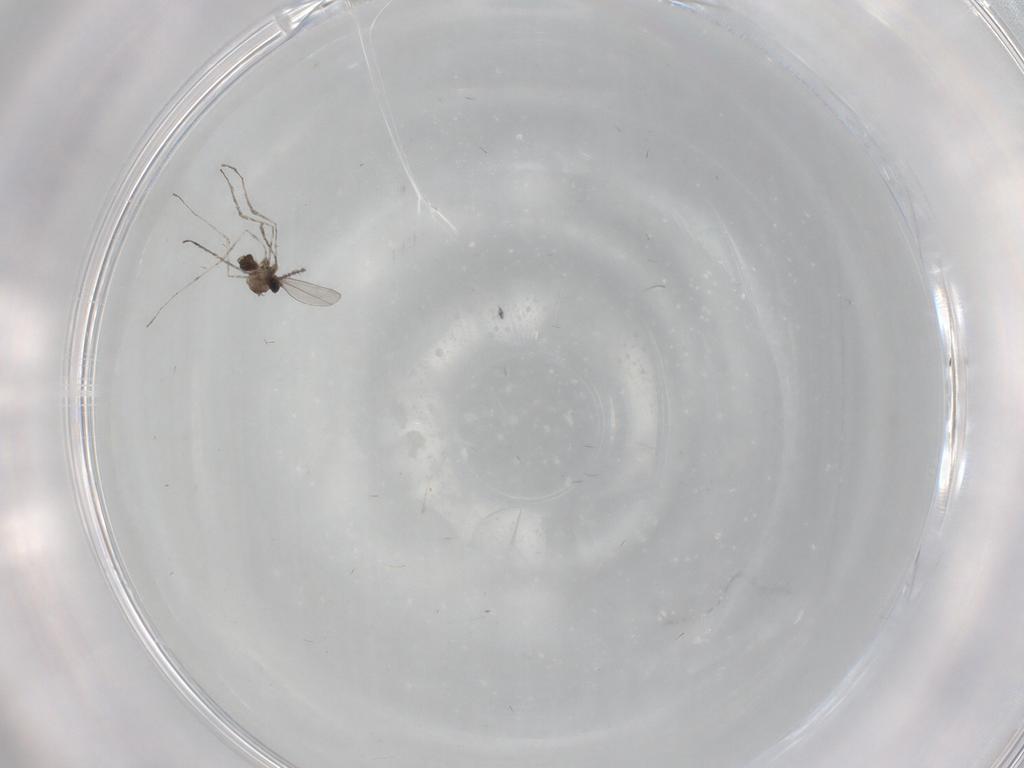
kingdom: Animalia
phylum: Arthropoda
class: Insecta
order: Diptera
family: Cecidomyiidae
